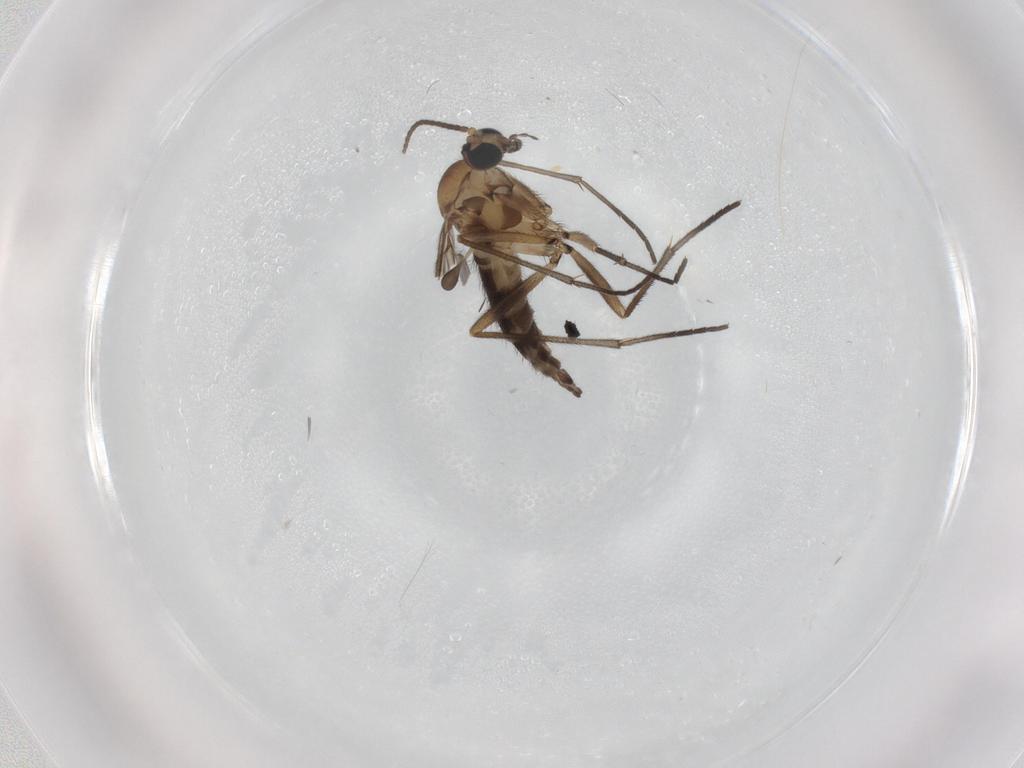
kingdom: Animalia
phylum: Arthropoda
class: Insecta
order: Diptera
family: Sciaridae
